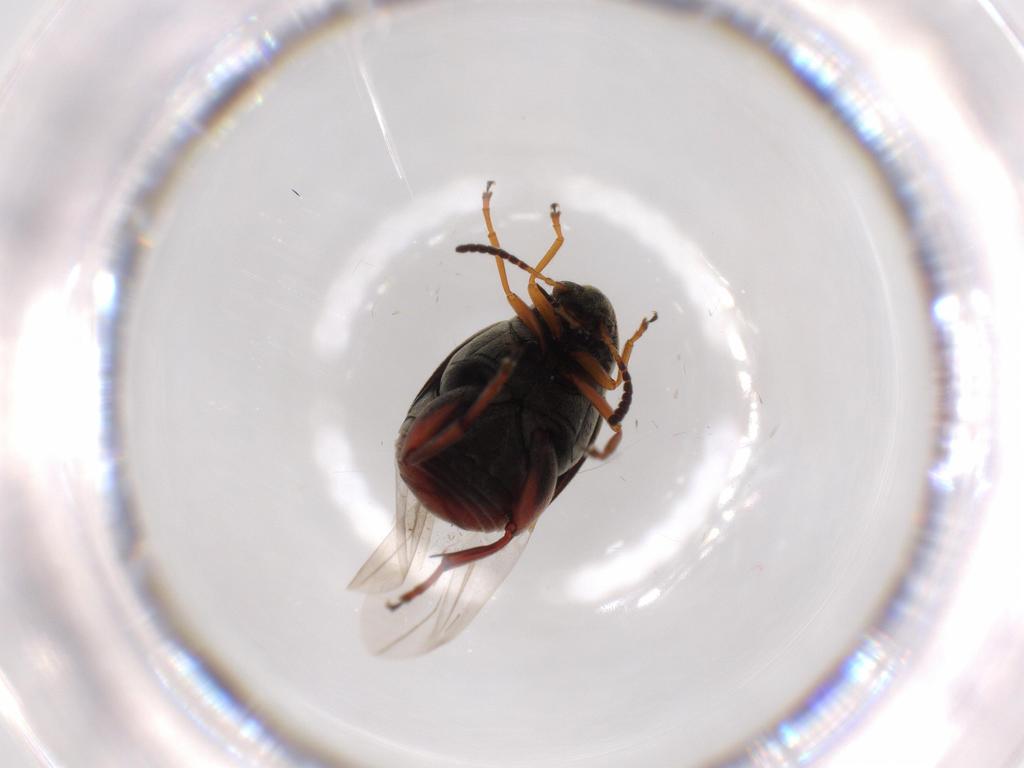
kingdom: Animalia
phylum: Arthropoda
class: Insecta
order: Coleoptera
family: Chrysomelidae
